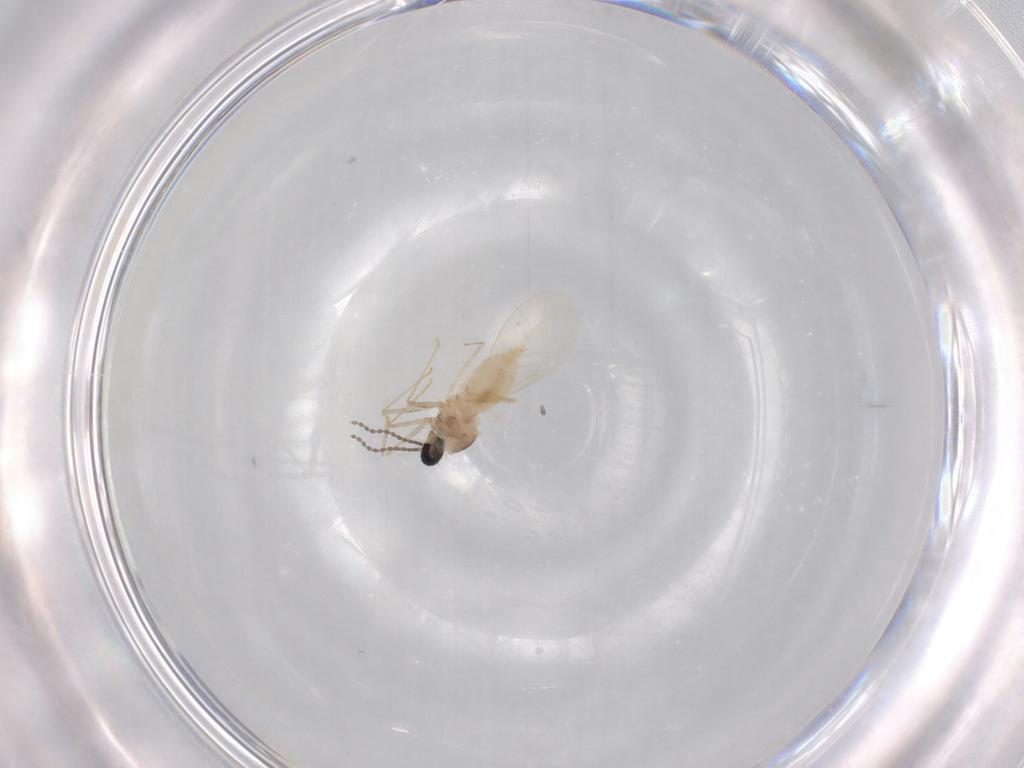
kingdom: Animalia
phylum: Arthropoda
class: Insecta
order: Diptera
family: Cecidomyiidae
